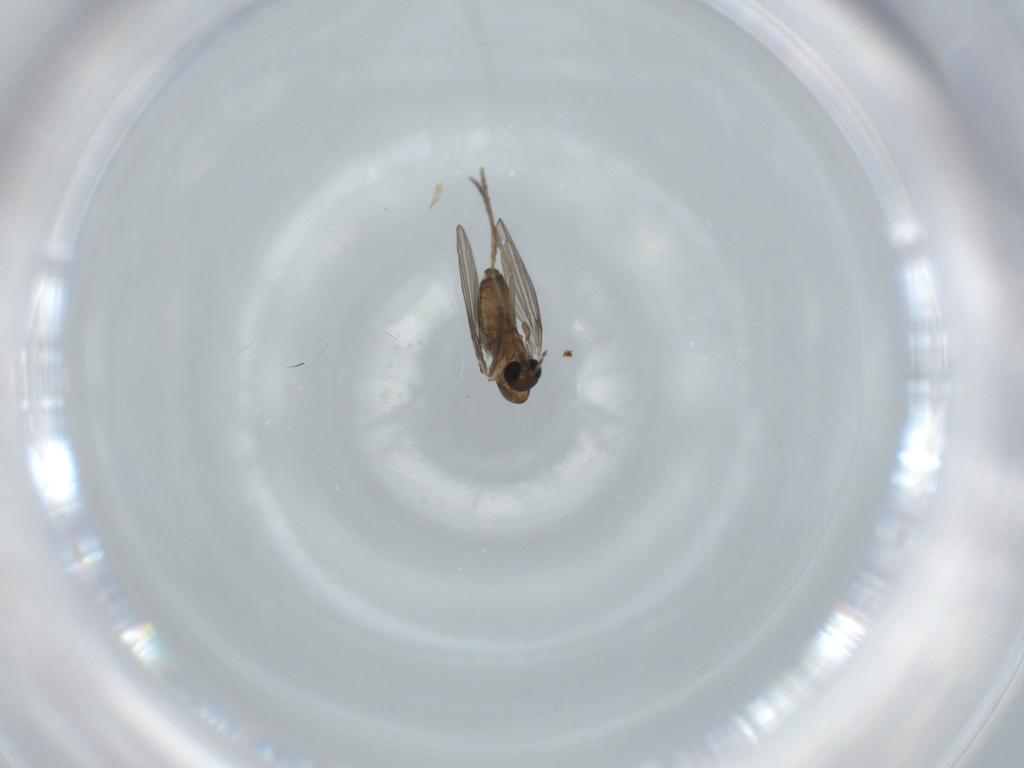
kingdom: Animalia
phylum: Arthropoda
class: Insecta
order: Diptera
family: Psychodidae
